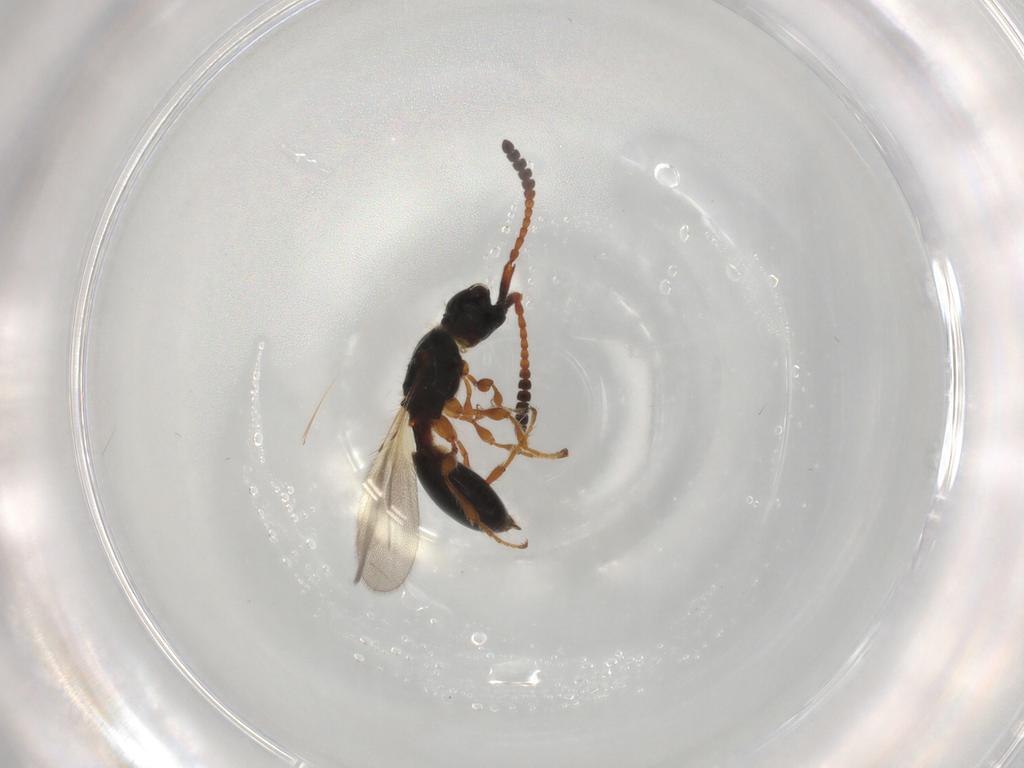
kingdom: Animalia
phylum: Arthropoda
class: Insecta
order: Hymenoptera
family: Diapriidae
